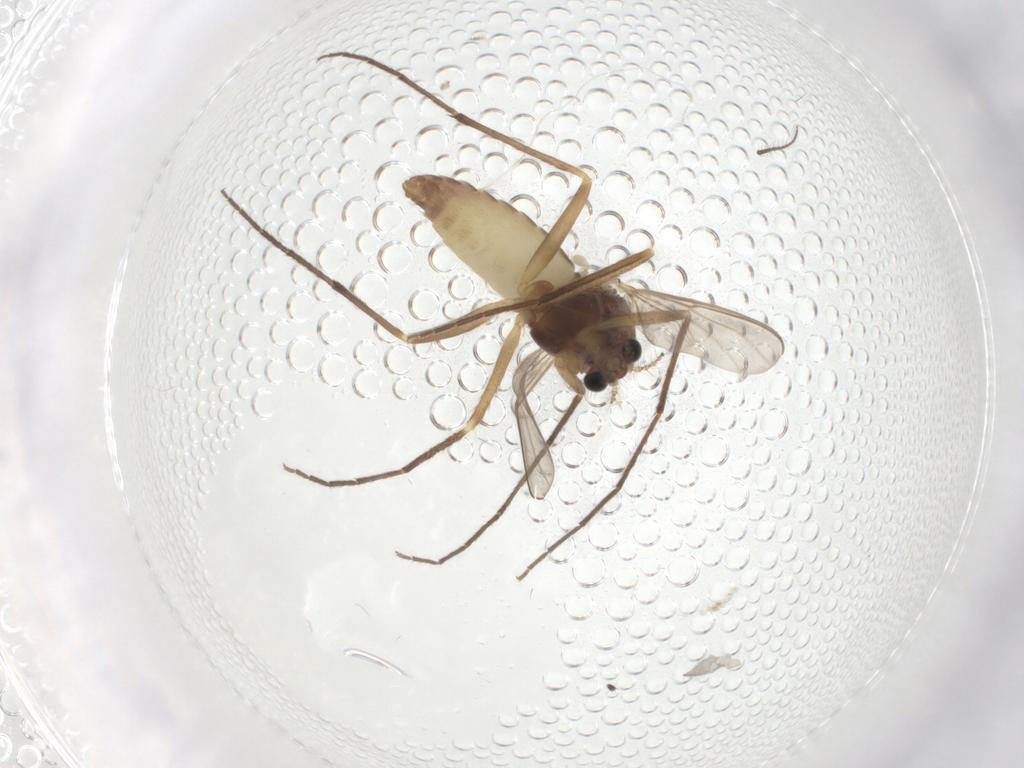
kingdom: Animalia
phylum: Arthropoda
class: Insecta
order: Diptera
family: Chironomidae
